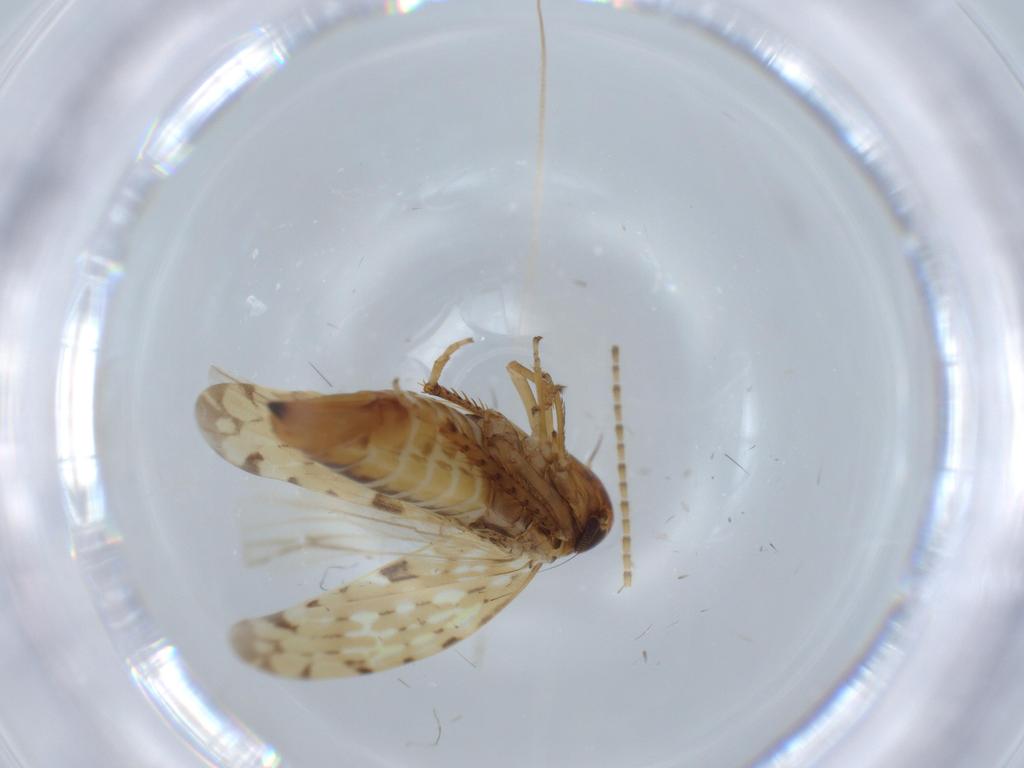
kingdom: Animalia
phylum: Arthropoda
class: Insecta
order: Hemiptera
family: Cicadellidae
